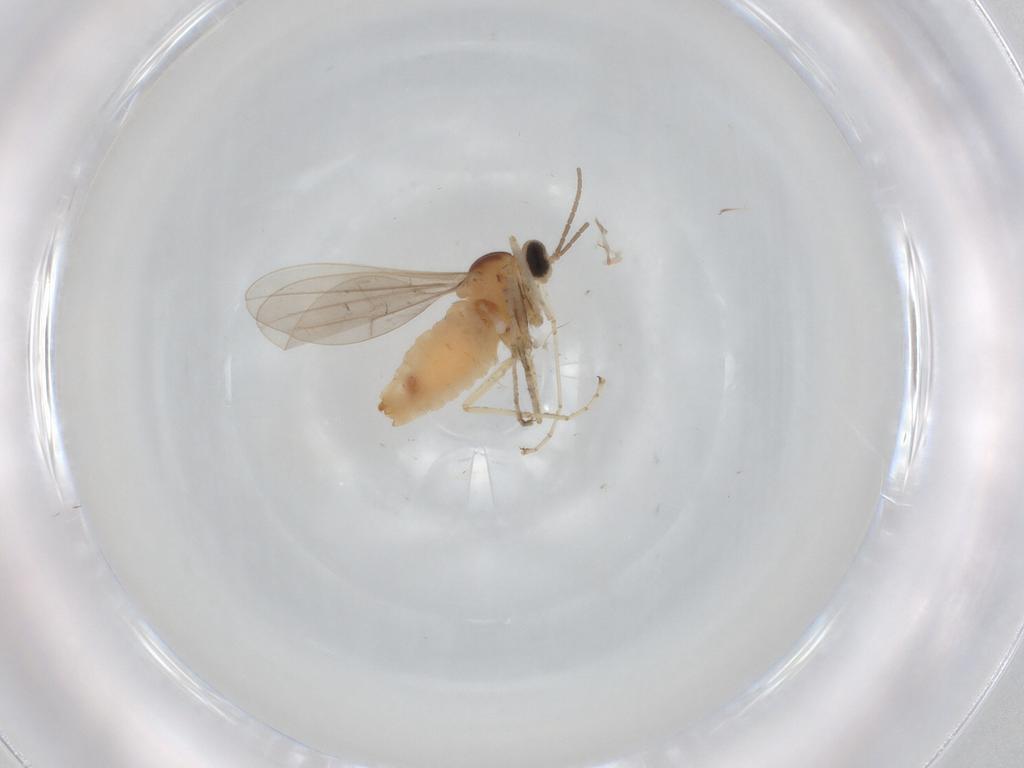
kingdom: Animalia
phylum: Arthropoda
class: Insecta
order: Diptera
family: Cecidomyiidae
